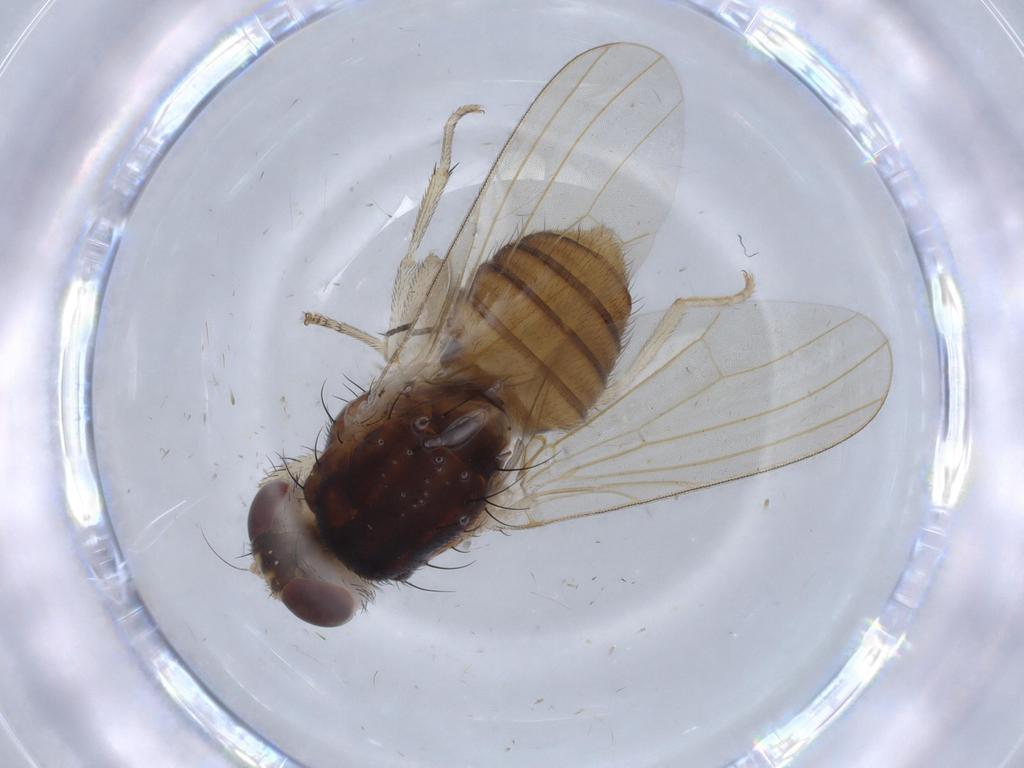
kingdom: Animalia
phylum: Arthropoda
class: Insecta
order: Diptera
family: Lauxaniidae
